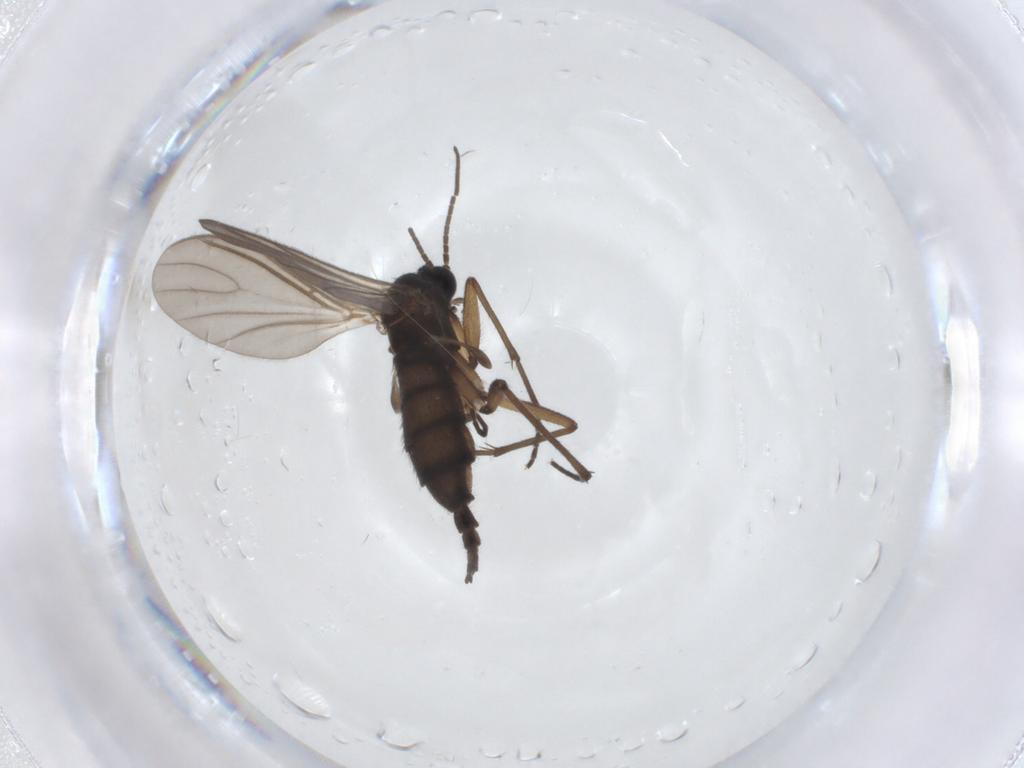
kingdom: Animalia
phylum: Arthropoda
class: Insecta
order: Diptera
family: Sciaridae
